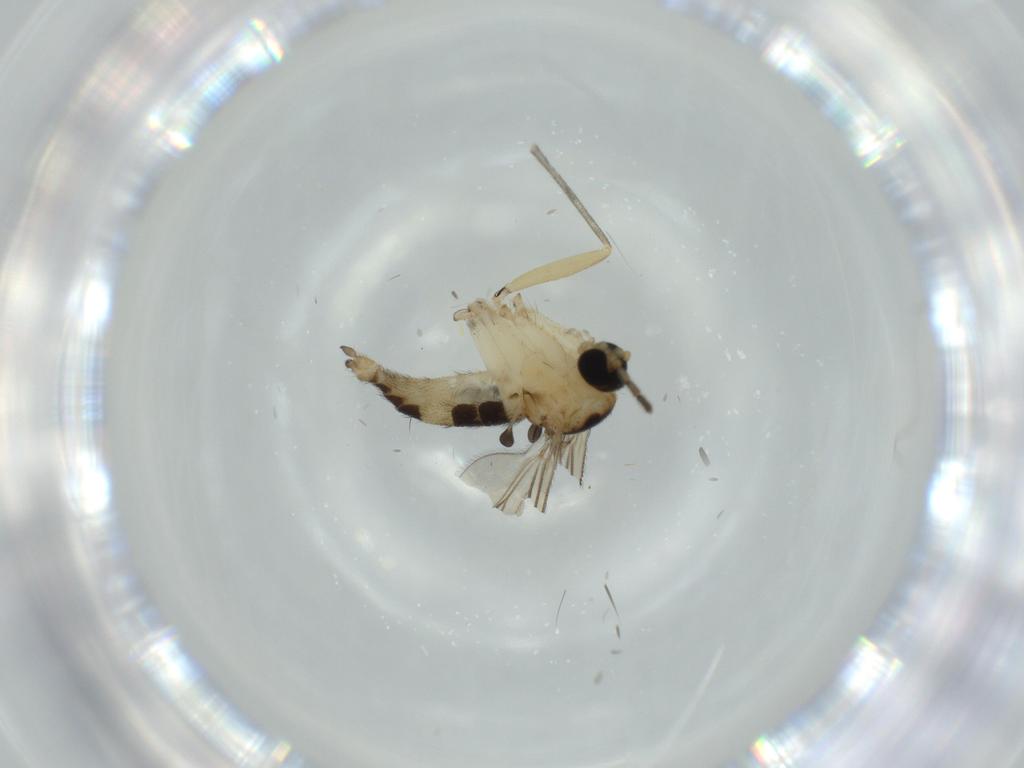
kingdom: Animalia
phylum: Arthropoda
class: Insecta
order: Diptera
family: Sciaridae
